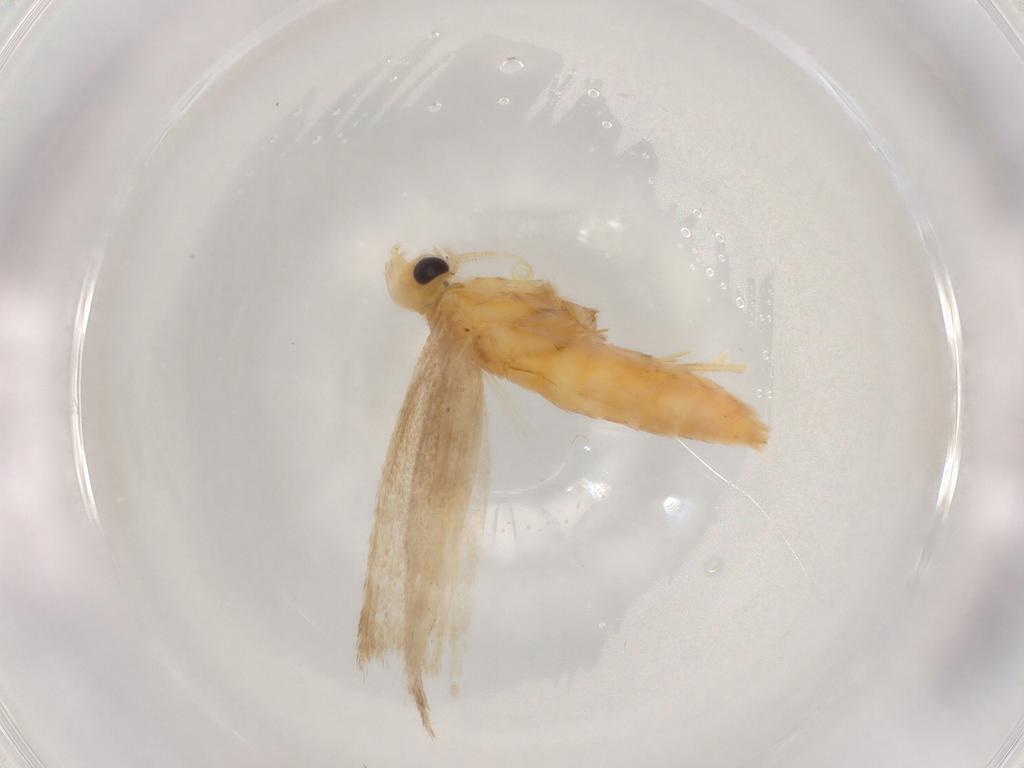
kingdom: Animalia
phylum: Arthropoda
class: Insecta
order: Lepidoptera
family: Gracillariidae
